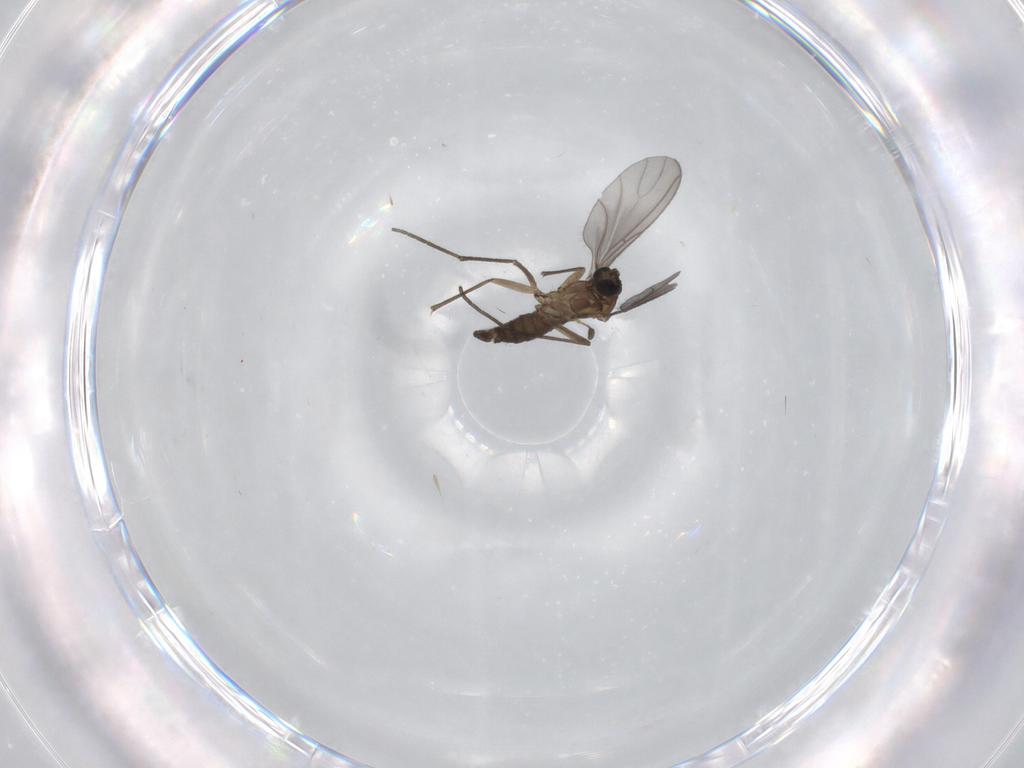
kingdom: Animalia
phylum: Arthropoda
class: Insecta
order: Diptera
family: Sciaridae
